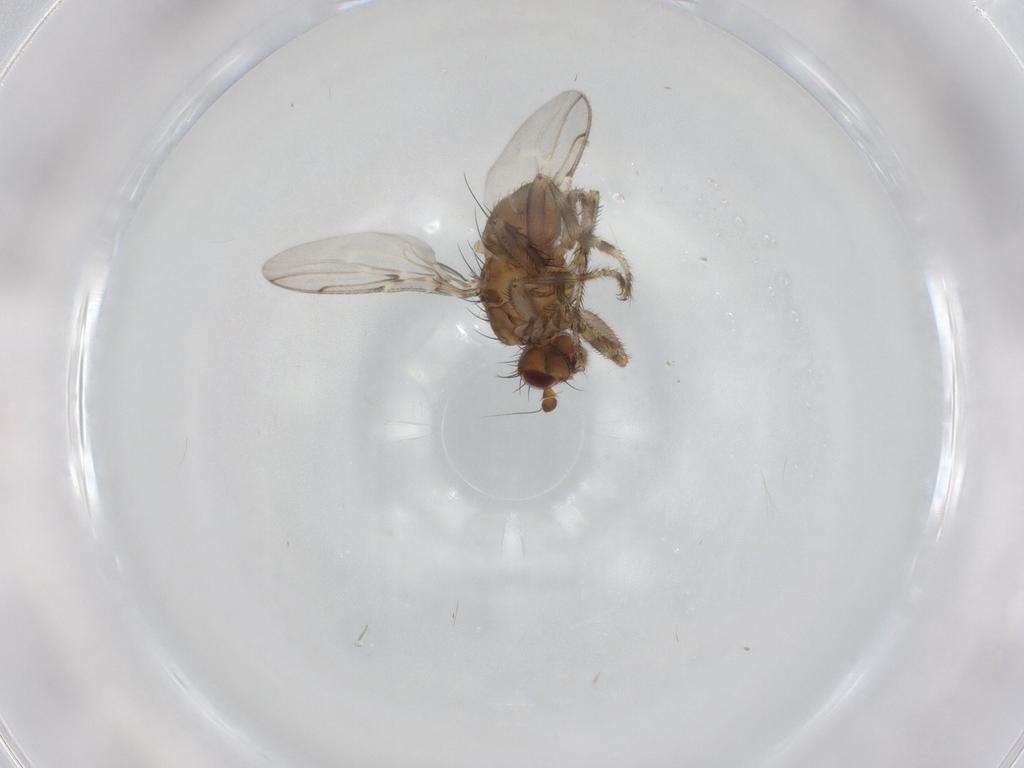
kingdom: Animalia
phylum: Arthropoda
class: Insecta
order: Diptera
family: Sphaeroceridae
